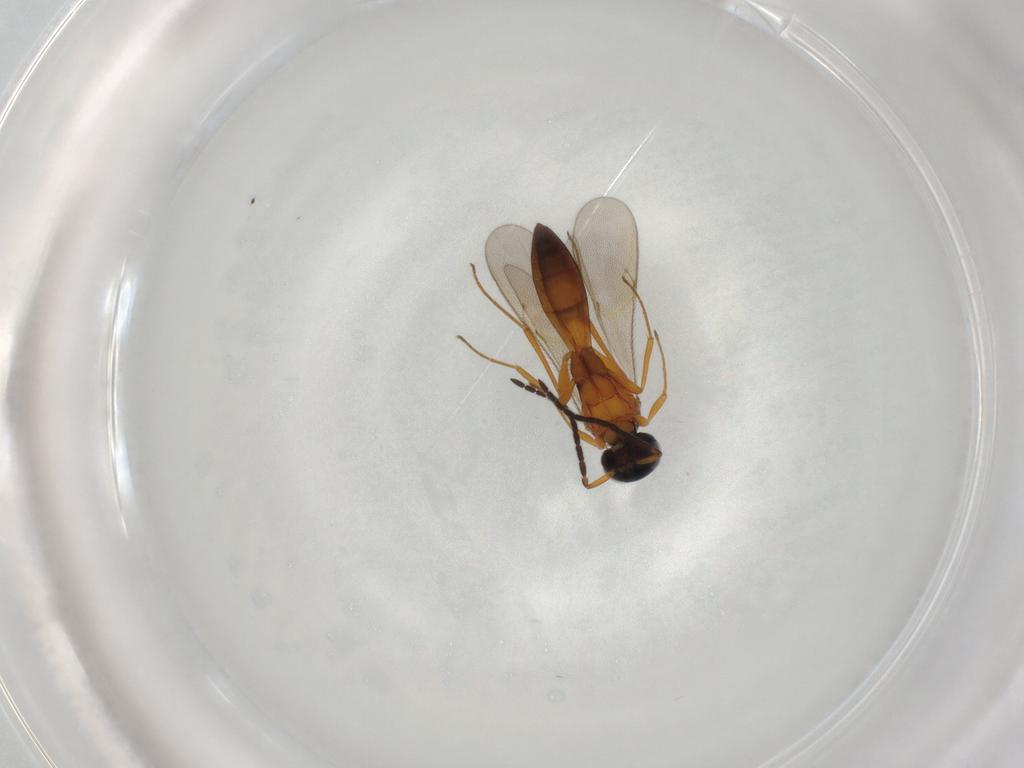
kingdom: Animalia
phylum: Arthropoda
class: Insecta
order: Hymenoptera
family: Scelionidae
